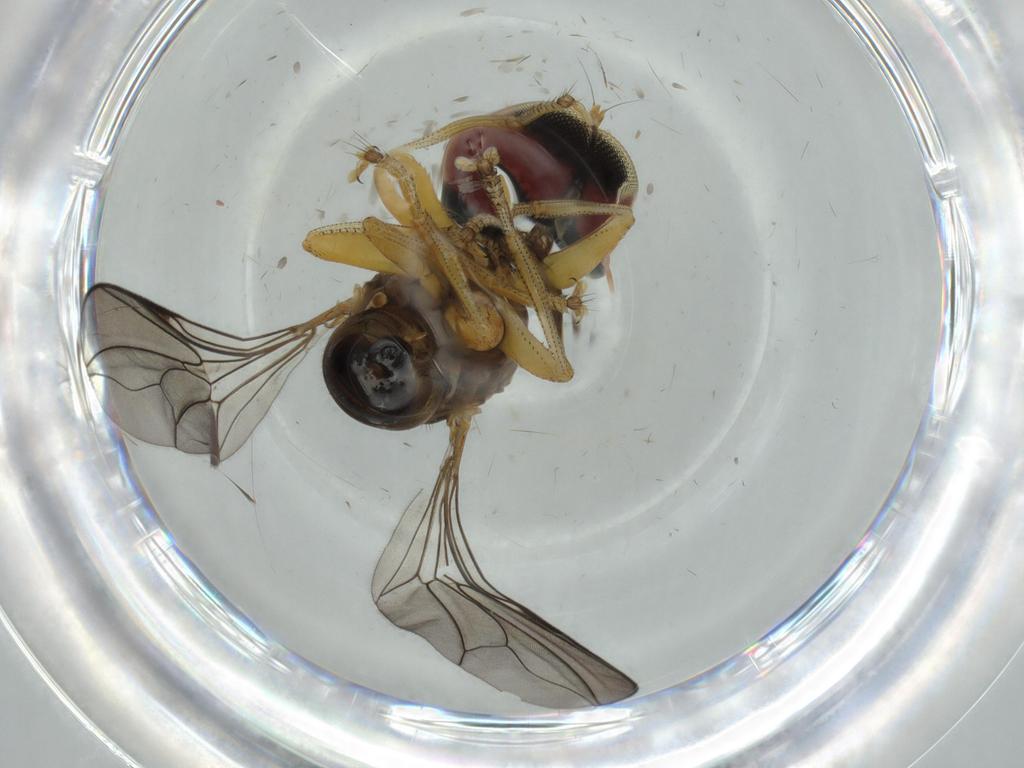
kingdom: Animalia
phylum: Arthropoda
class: Insecta
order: Diptera
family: Pipunculidae
